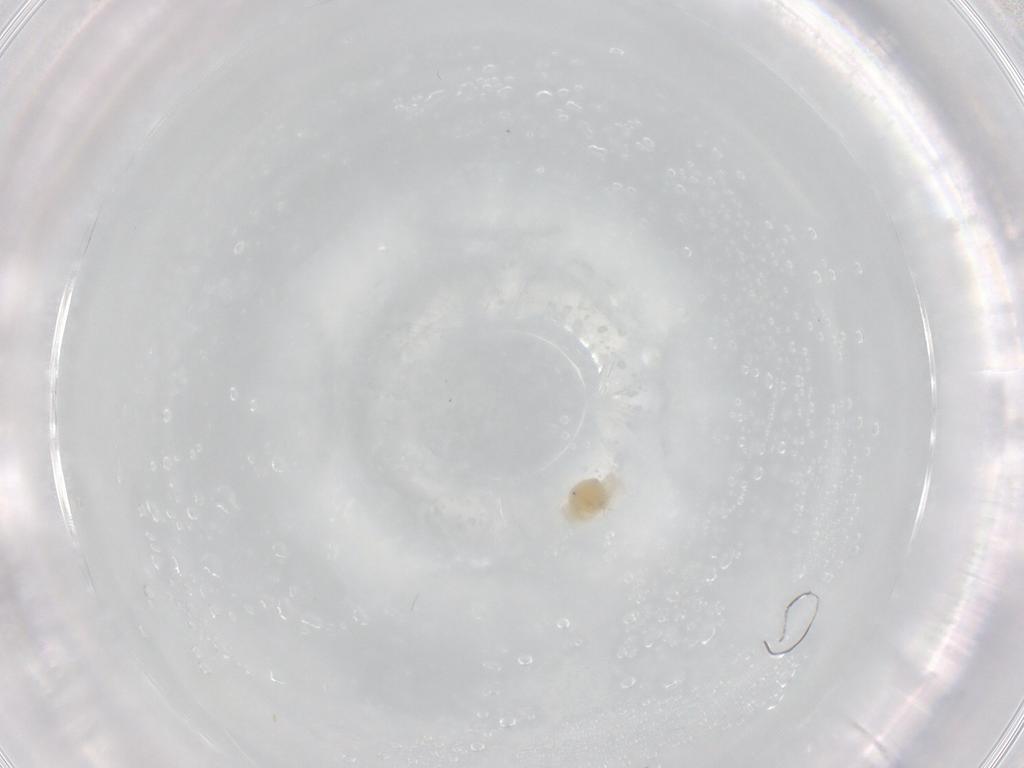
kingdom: Animalia
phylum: Arthropoda
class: Arachnida
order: Trombidiformes
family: Anystidae
